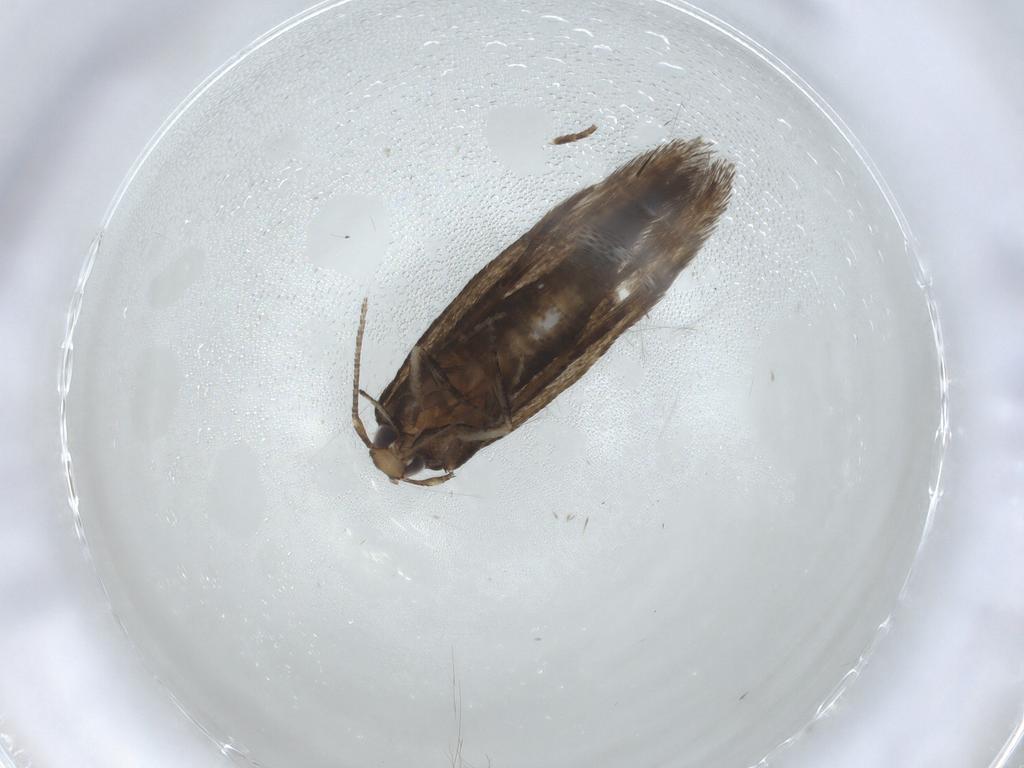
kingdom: Animalia
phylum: Arthropoda
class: Insecta
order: Lepidoptera
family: Cosmopterigidae
